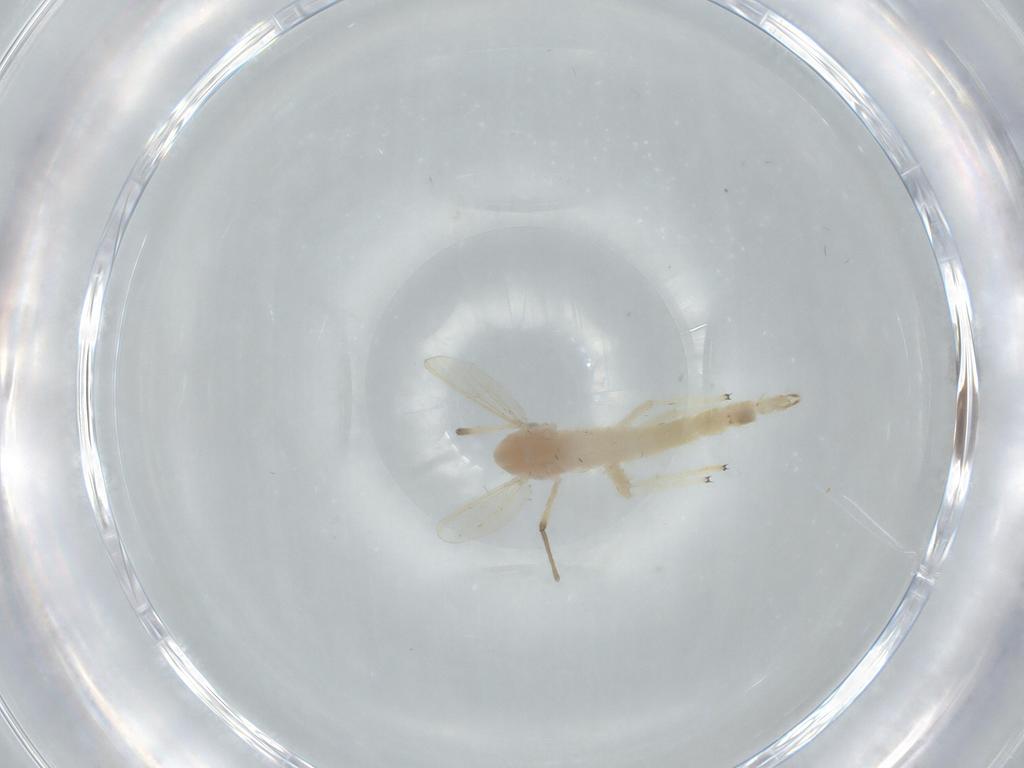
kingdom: Animalia
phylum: Arthropoda
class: Insecta
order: Diptera
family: Chironomidae
